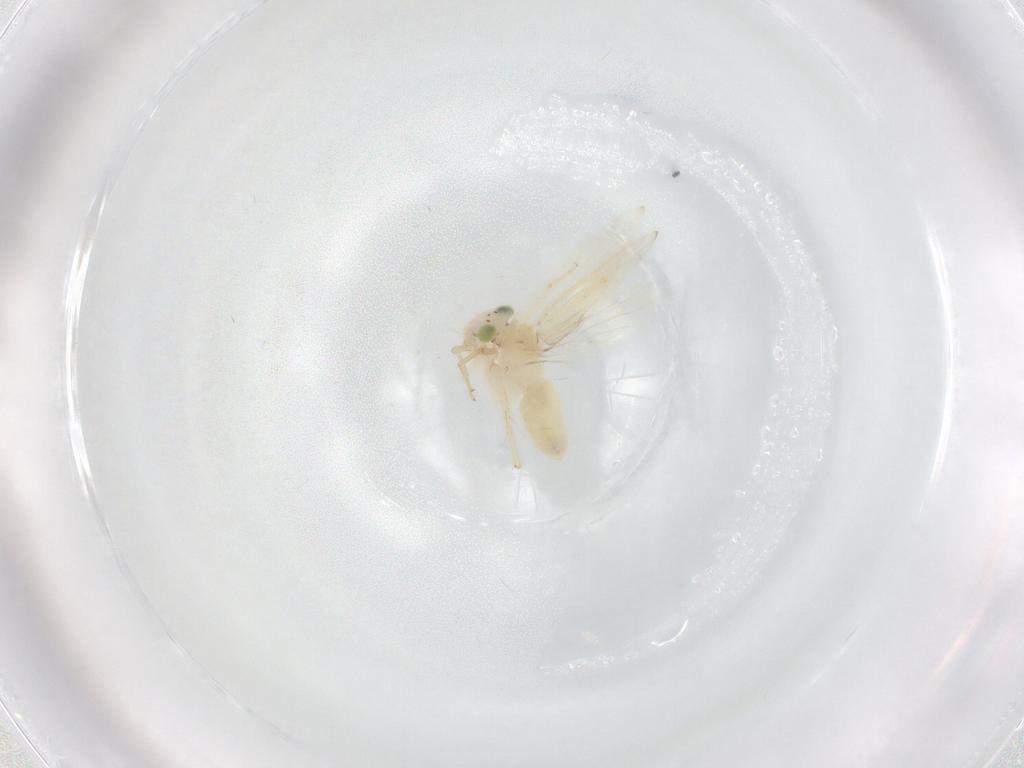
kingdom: Animalia
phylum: Arthropoda
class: Insecta
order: Psocodea
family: Lepidopsocidae
